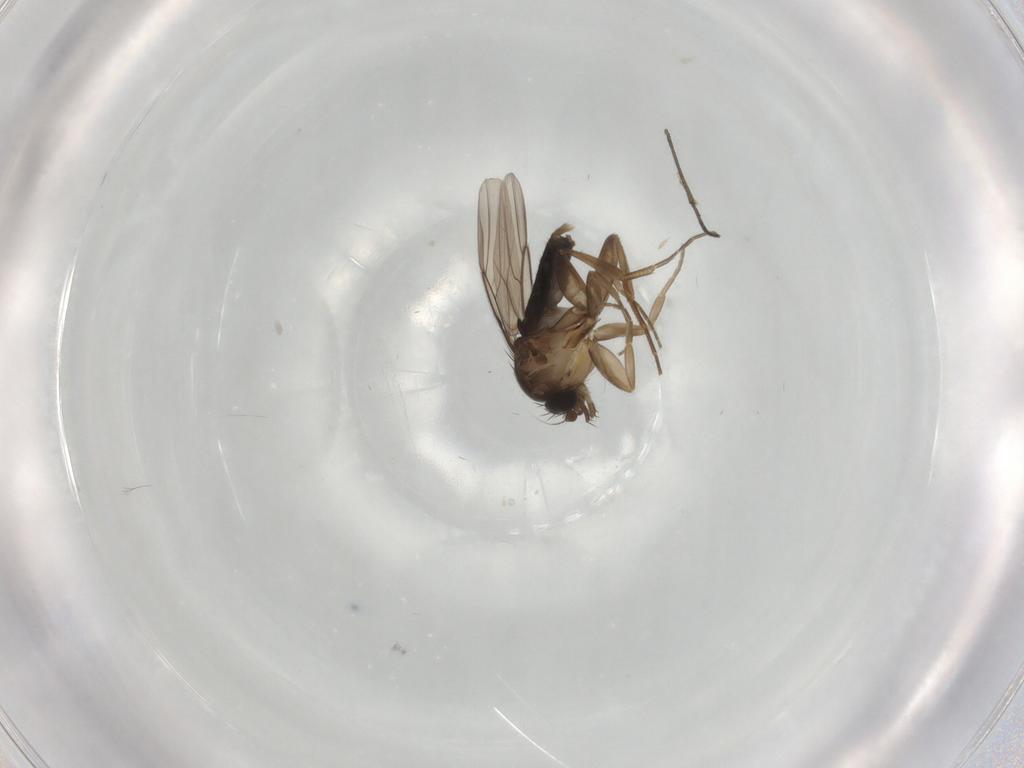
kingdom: Animalia
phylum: Arthropoda
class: Insecta
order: Diptera
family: Phoridae
